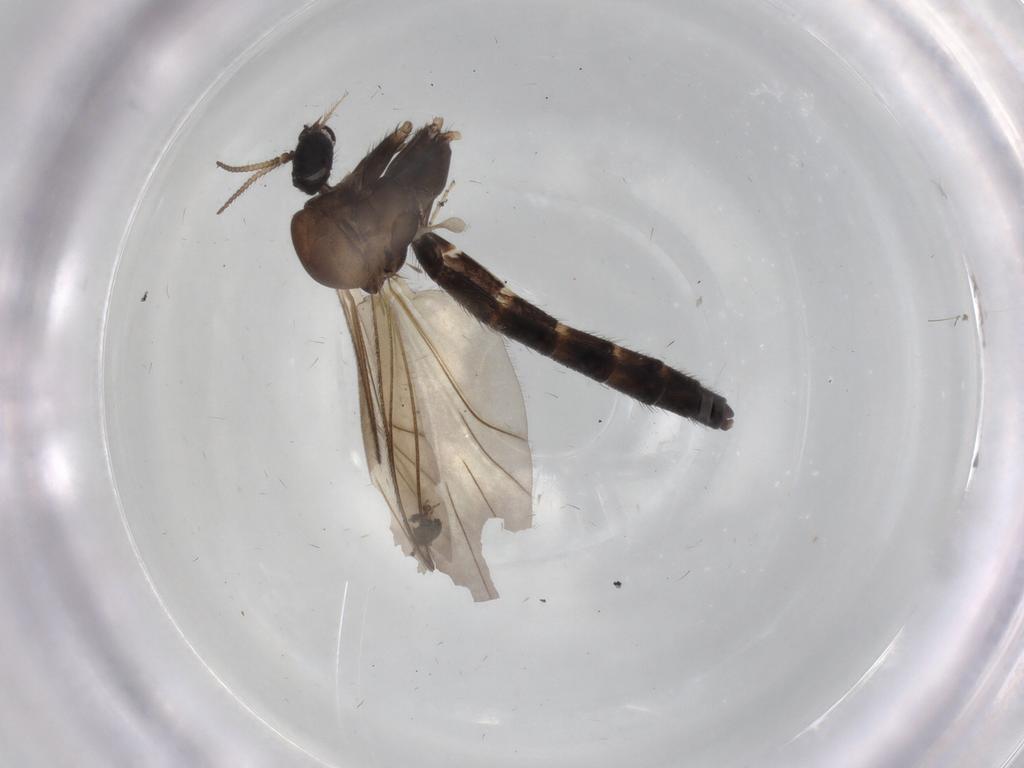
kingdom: Animalia
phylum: Arthropoda
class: Insecta
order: Diptera
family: Phoridae
